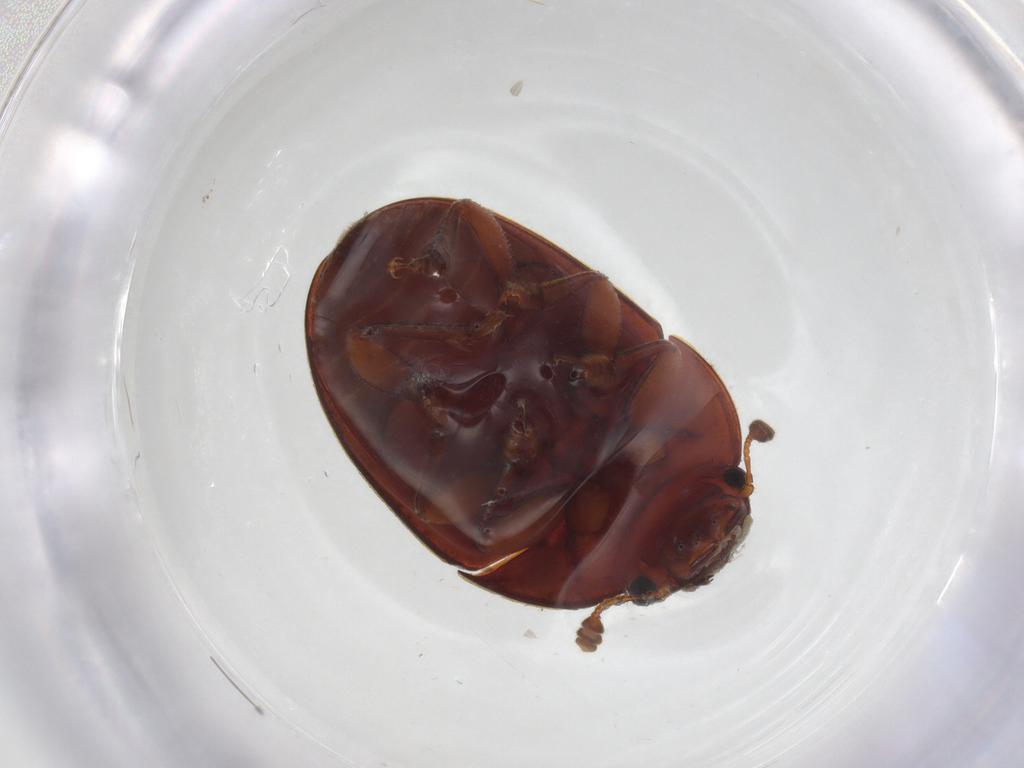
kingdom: Animalia
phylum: Arthropoda
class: Insecta
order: Coleoptera
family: Nitidulidae
